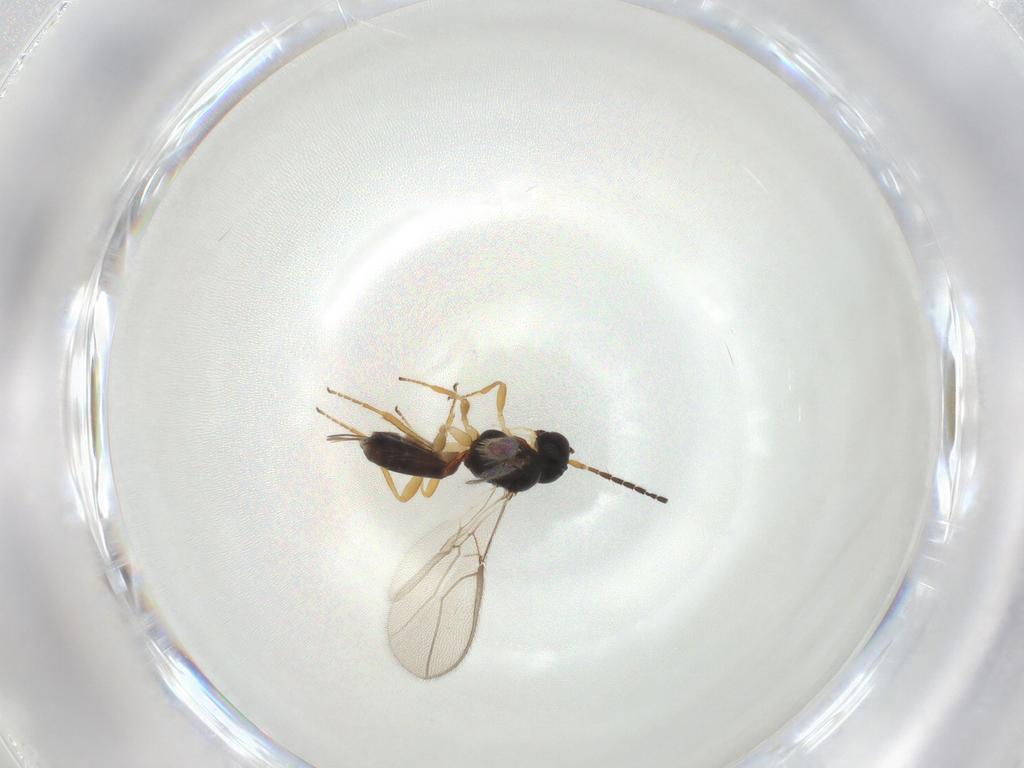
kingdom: Animalia
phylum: Arthropoda
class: Insecta
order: Hymenoptera
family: Braconidae
